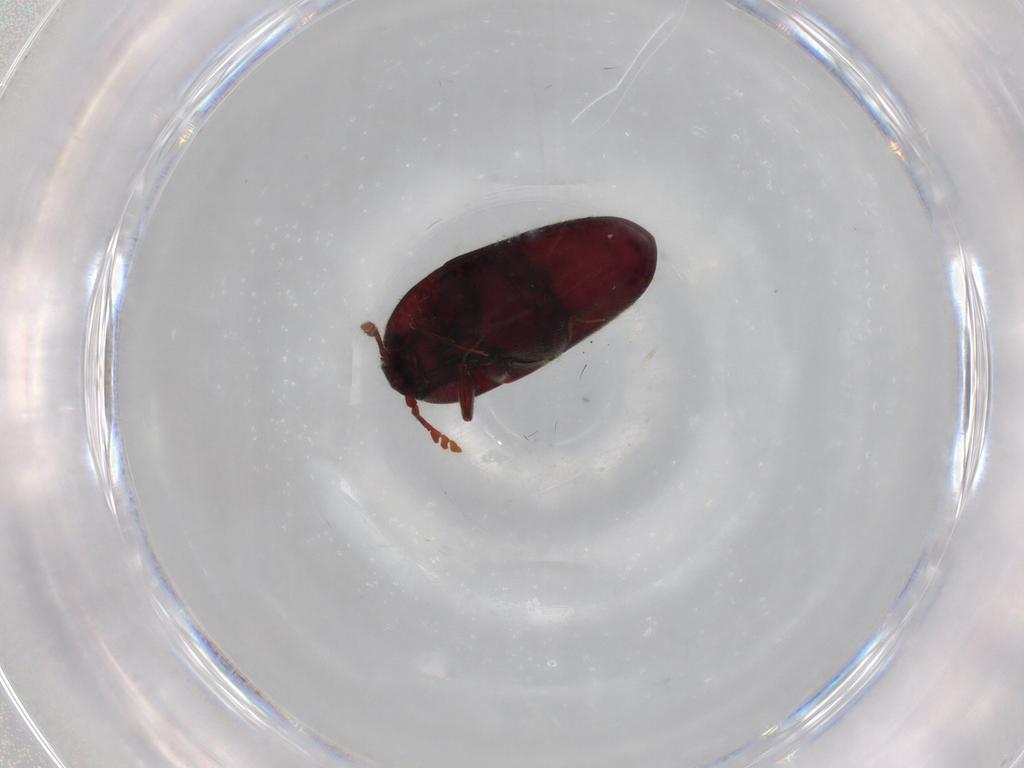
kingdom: Animalia
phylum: Arthropoda
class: Insecta
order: Coleoptera
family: Throscidae
